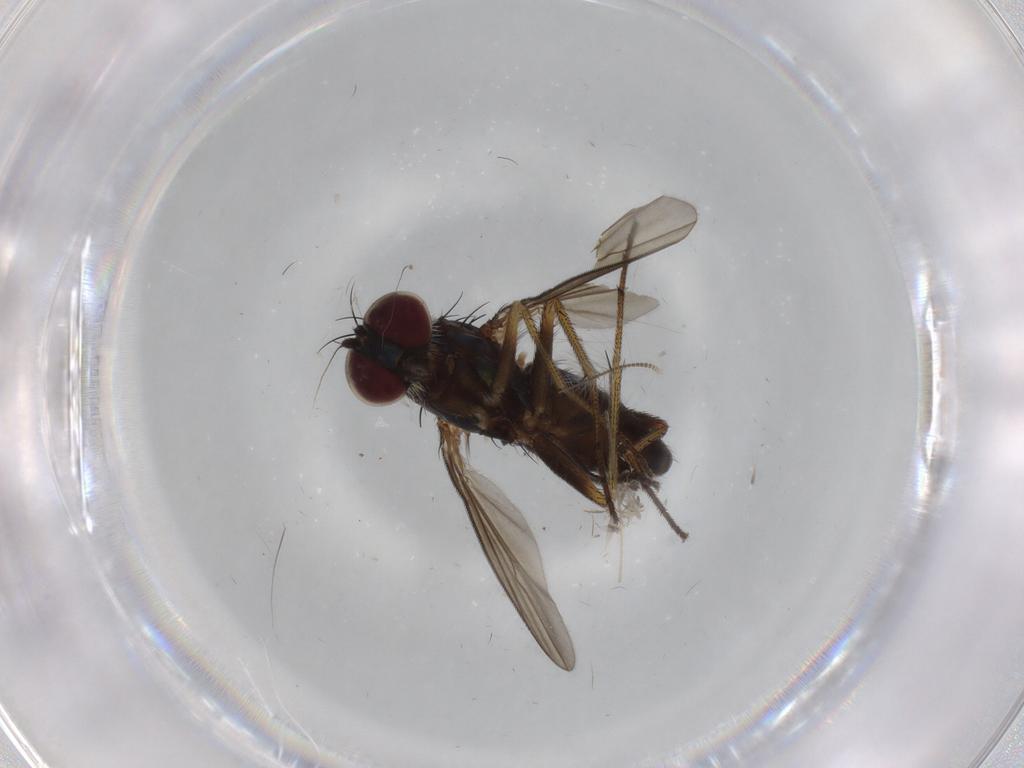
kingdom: Animalia
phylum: Arthropoda
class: Insecta
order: Diptera
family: Dolichopodidae
